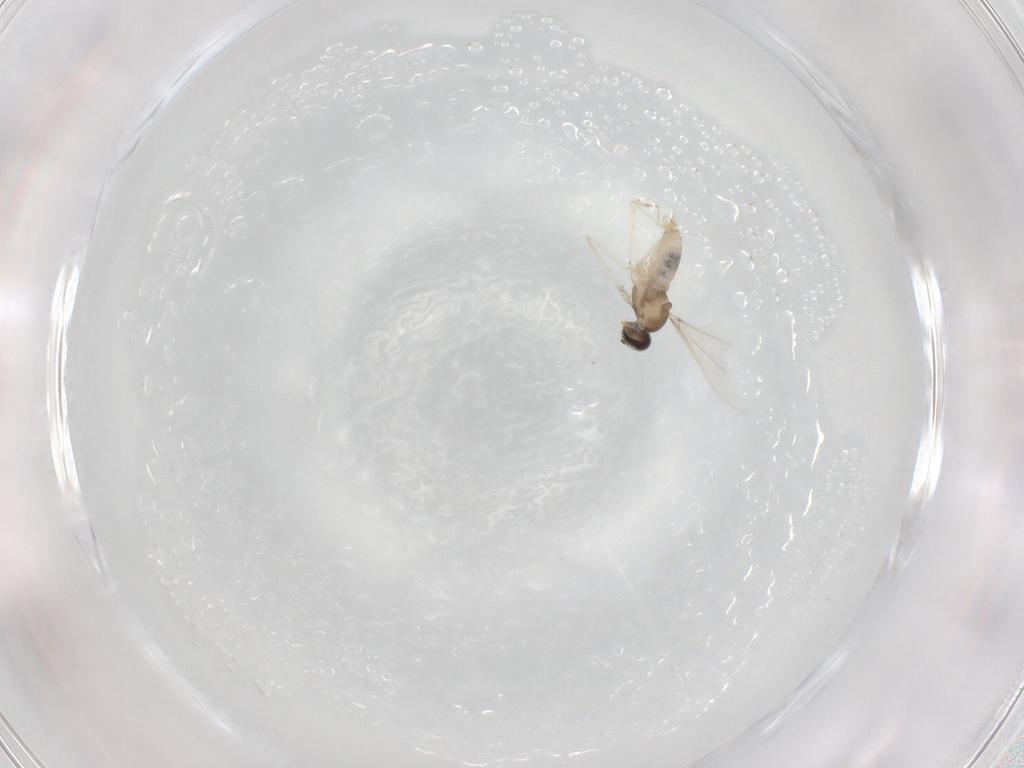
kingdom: Animalia
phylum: Arthropoda
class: Insecta
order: Diptera
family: Cecidomyiidae
